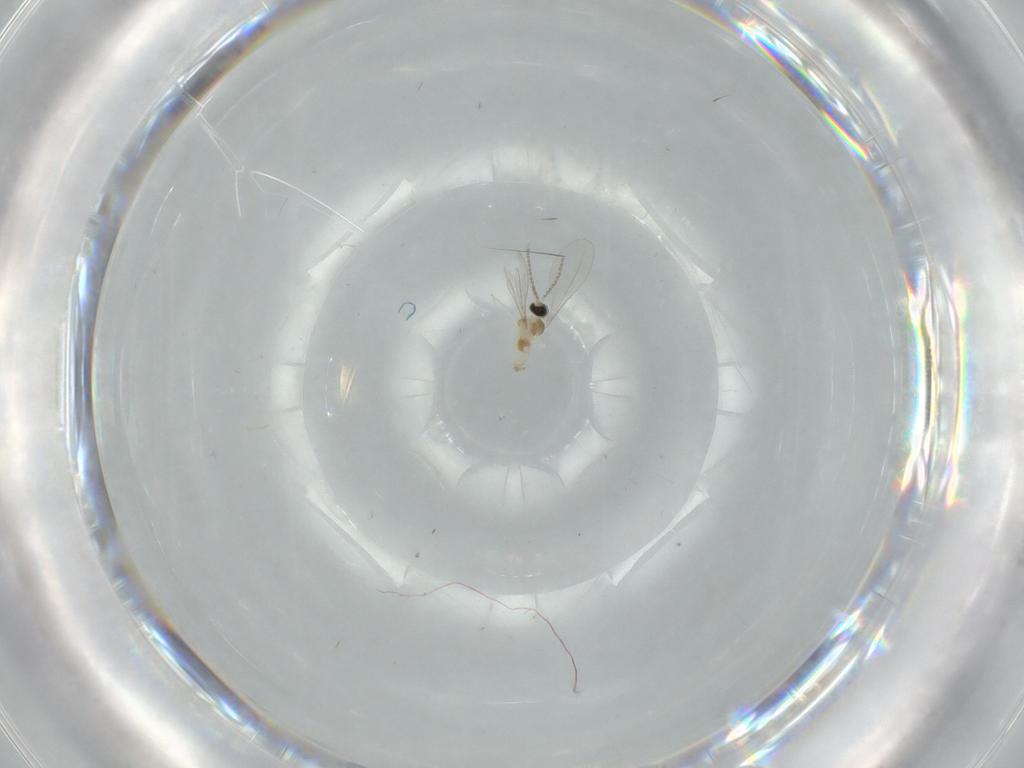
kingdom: Animalia
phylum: Arthropoda
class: Insecta
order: Diptera
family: Cecidomyiidae
